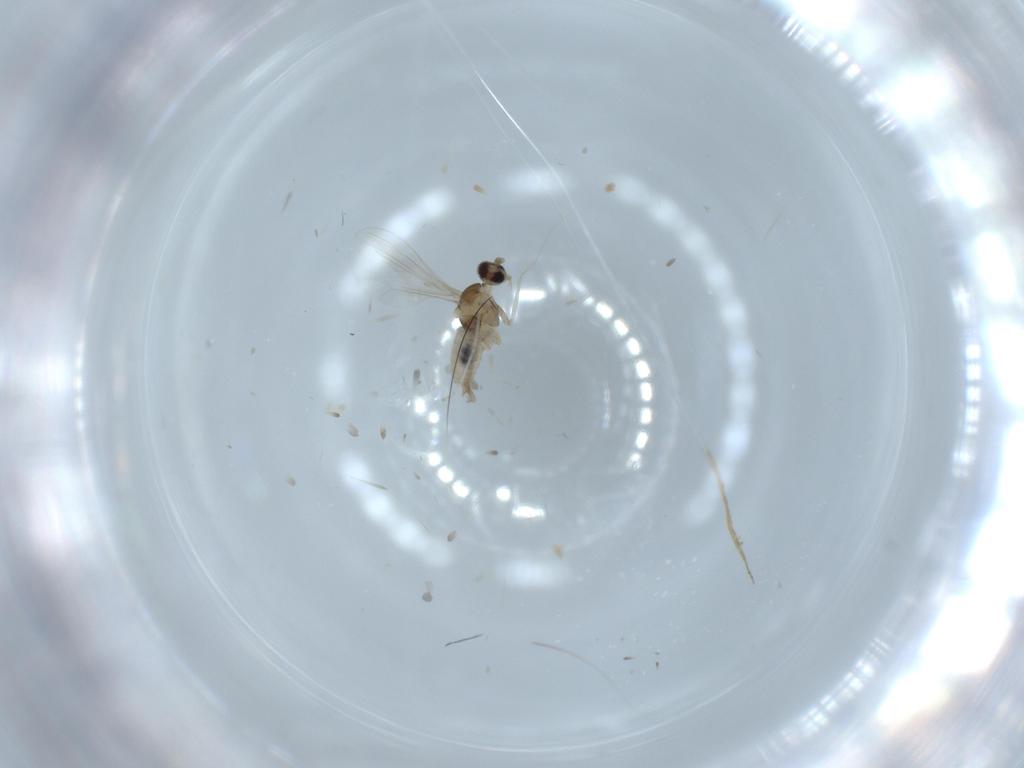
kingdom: Animalia
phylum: Arthropoda
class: Insecta
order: Diptera
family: Cecidomyiidae
